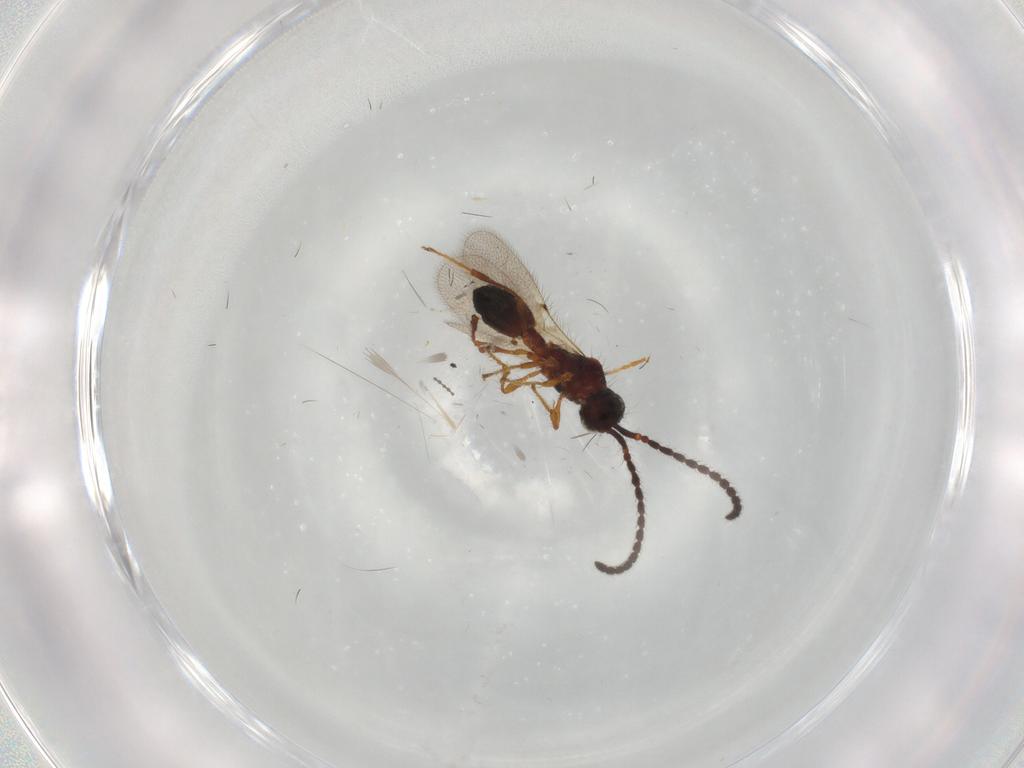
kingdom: Animalia
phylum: Arthropoda
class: Insecta
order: Hymenoptera
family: Diapriidae
